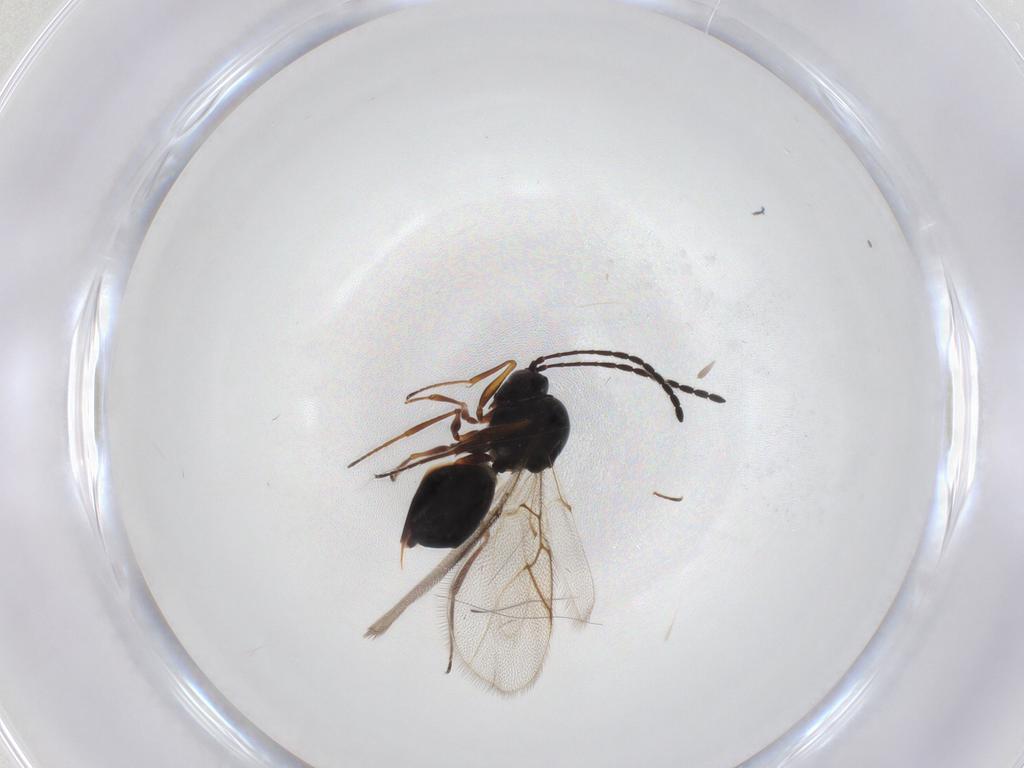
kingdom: Animalia
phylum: Arthropoda
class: Insecta
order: Hymenoptera
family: Figitidae
